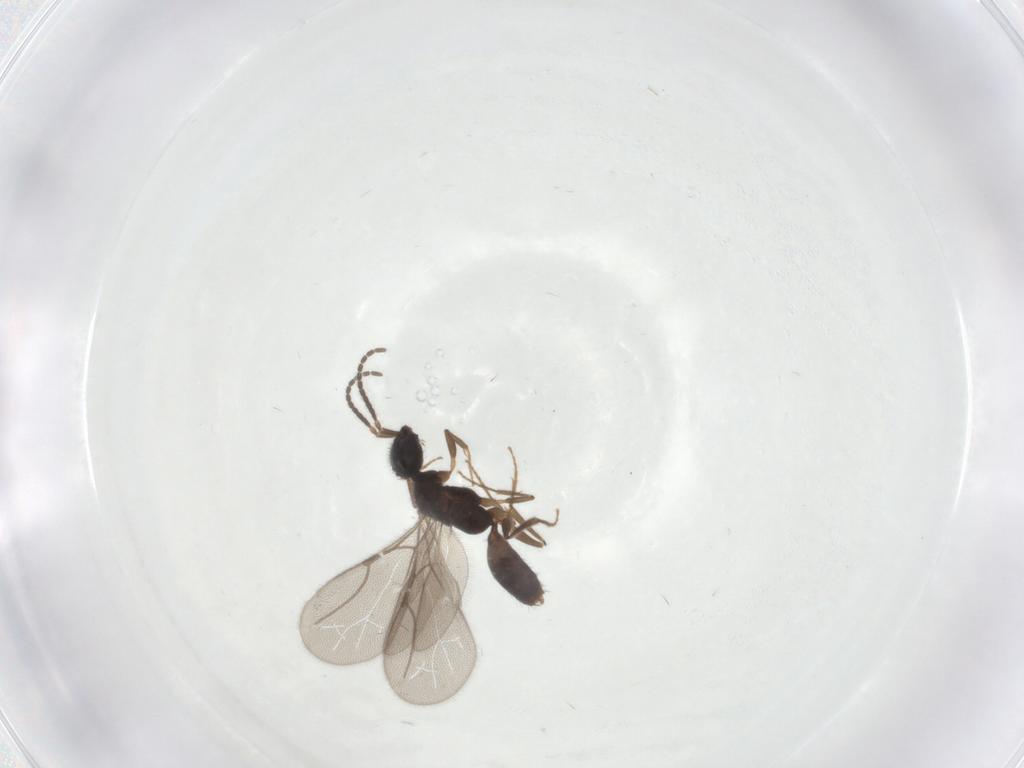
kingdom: Animalia
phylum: Arthropoda
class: Insecta
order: Hymenoptera
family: Bethylidae
